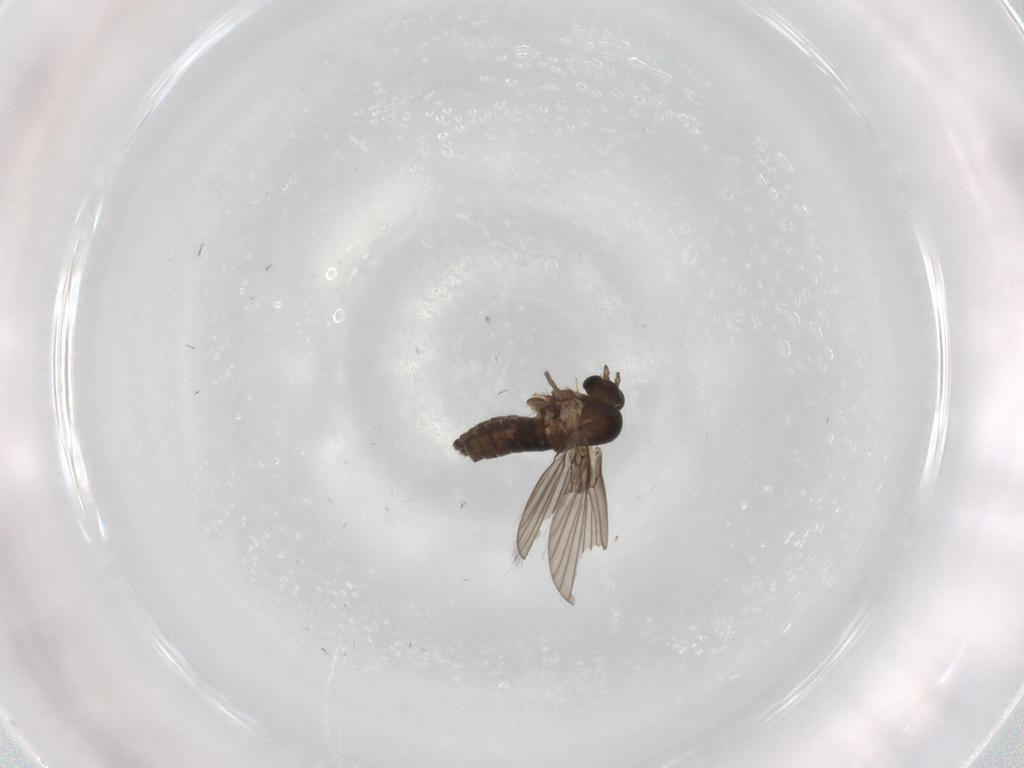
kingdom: Animalia
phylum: Arthropoda
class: Insecta
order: Diptera
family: Chironomidae
